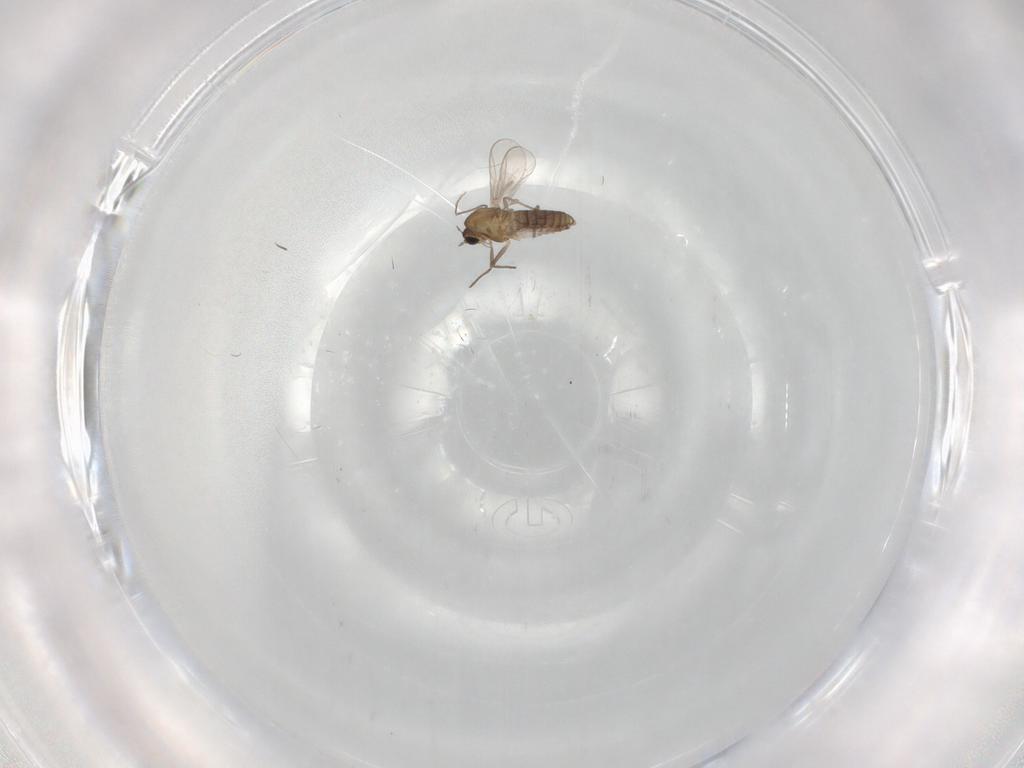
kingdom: Animalia
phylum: Arthropoda
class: Insecta
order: Diptera
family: Chironomidae
